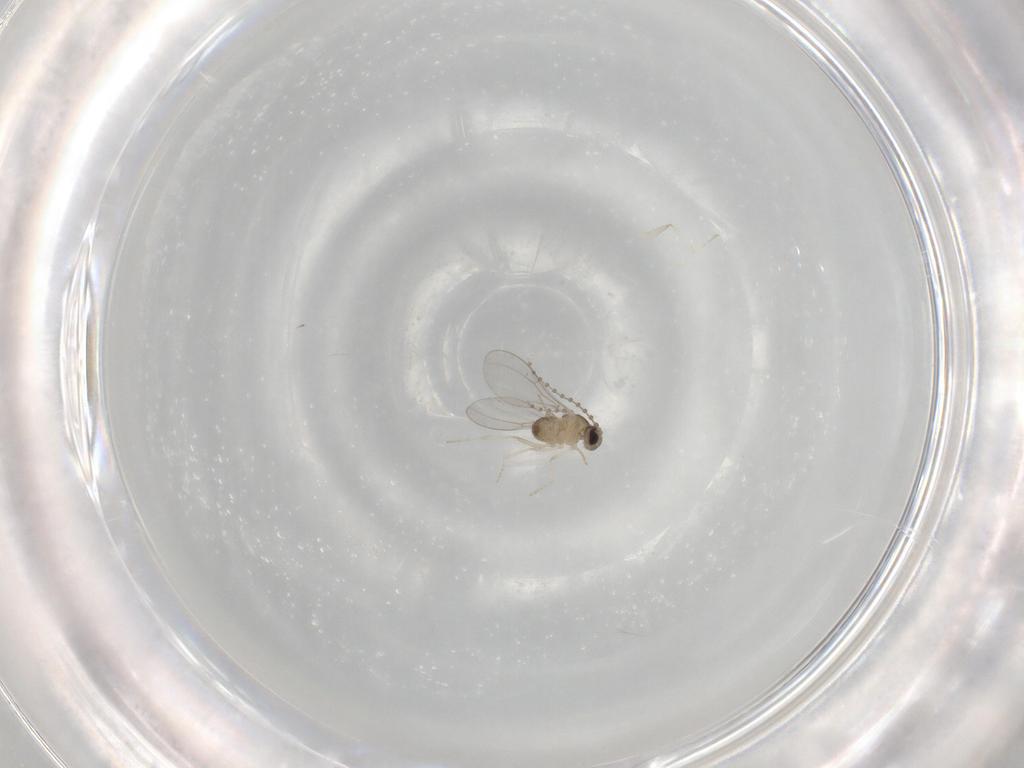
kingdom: Animalia
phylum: Arthropoda
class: Insecta
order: Diptera
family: Cecidomyiidae
